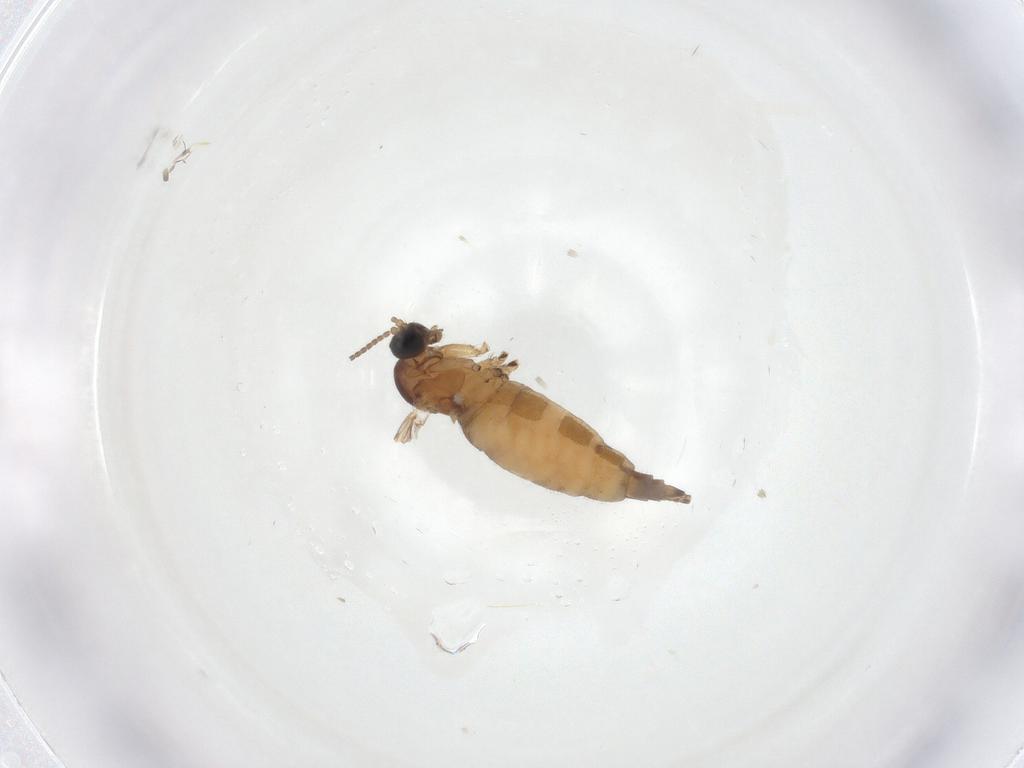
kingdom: Animalia
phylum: Arthropoda
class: Insecta
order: Diptera
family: Sciaridae
